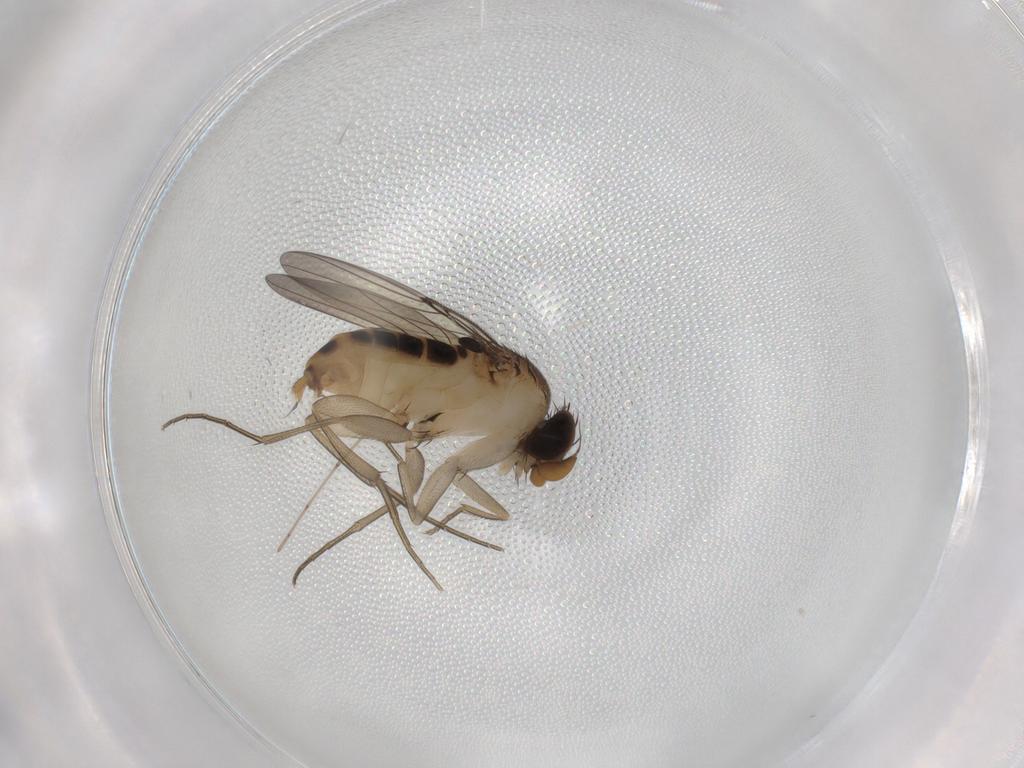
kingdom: Animalia
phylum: Arthropoda
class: Insecta
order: Diptera
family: Phoridae
